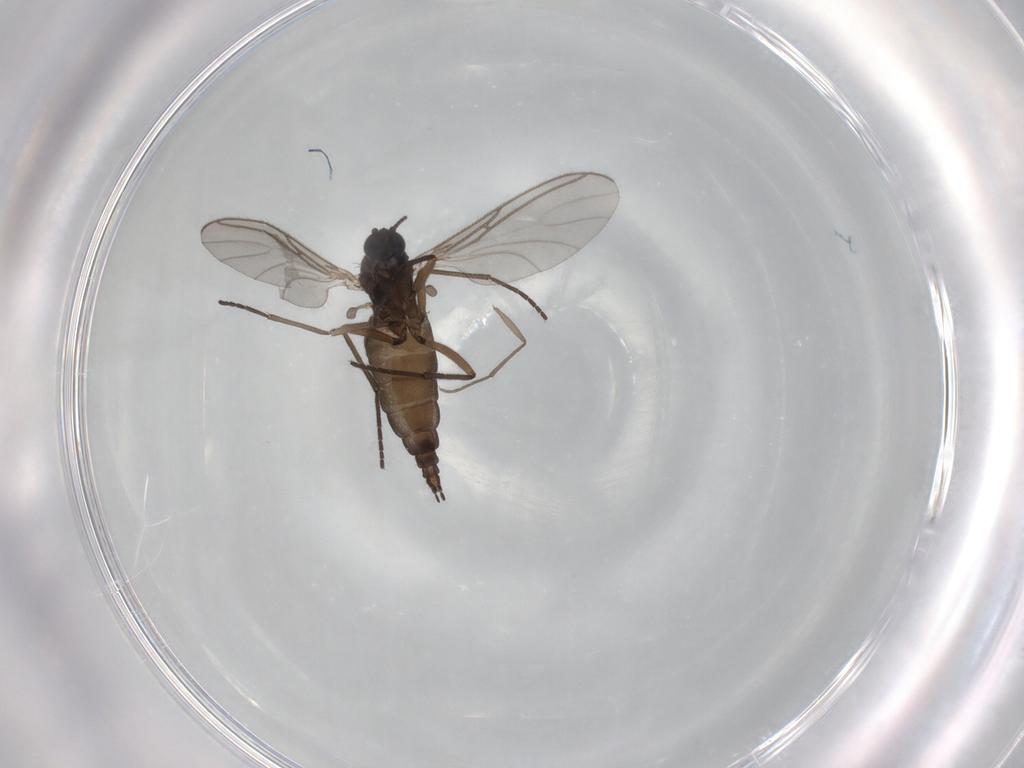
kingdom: Animalia
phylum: Arthropoda
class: Insecta
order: Diptera
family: Sciaridae
